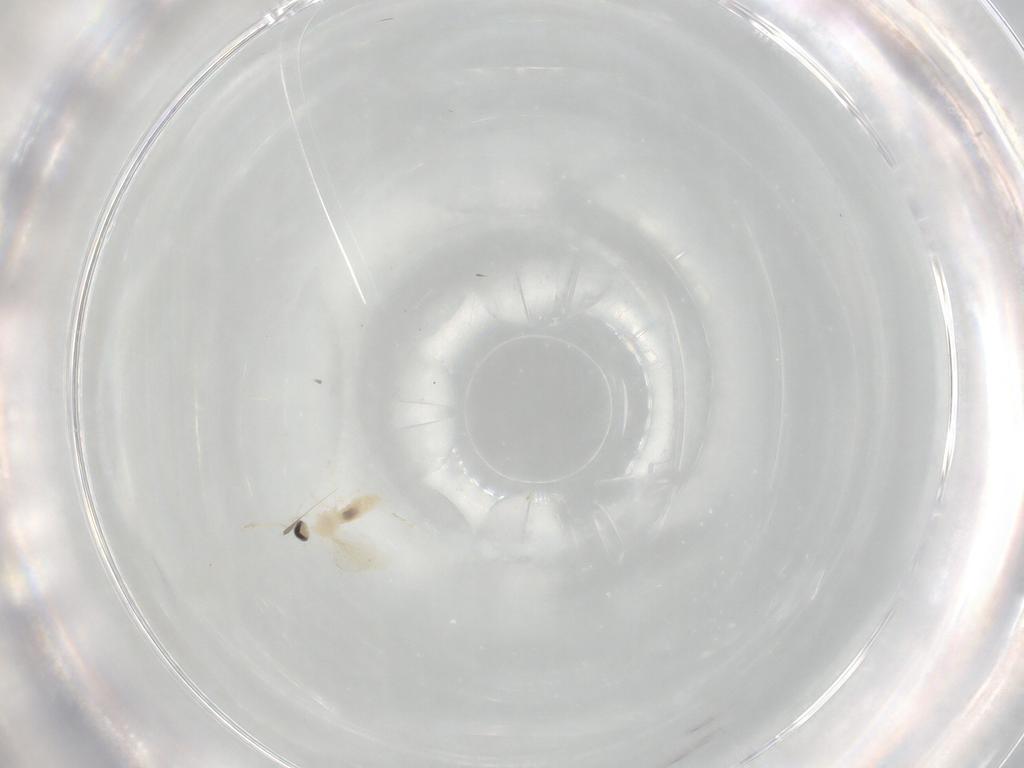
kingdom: Animalia
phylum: Arthropoda
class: Insecta
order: Diptera
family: Cecidomyiidae
